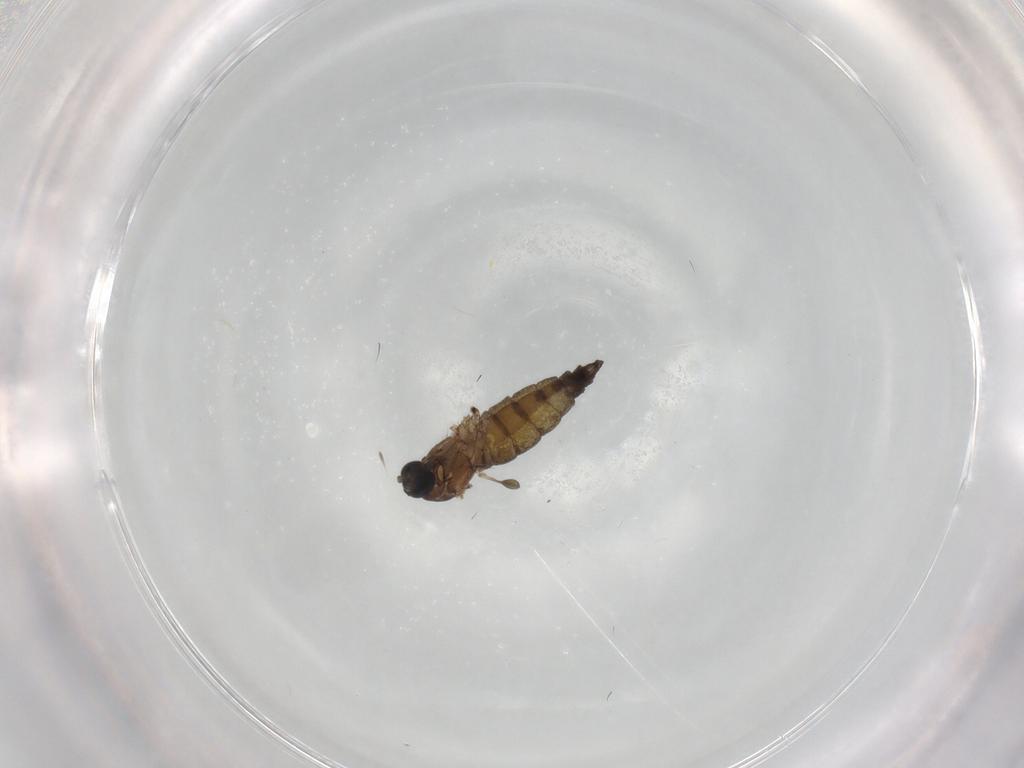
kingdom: Animalia
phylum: Arthropoda
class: Insecta
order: Diptera
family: Sciaridae
